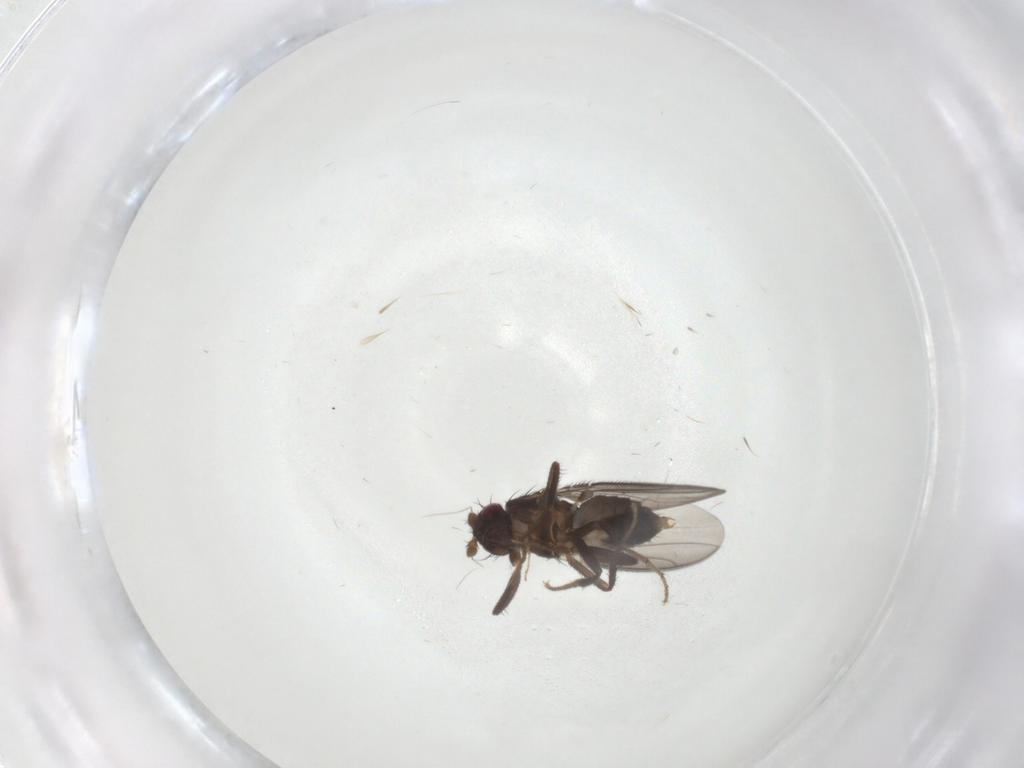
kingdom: Animalia
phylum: Arthropoda
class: Insecta
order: Diptera
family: Sphaeroceridae
